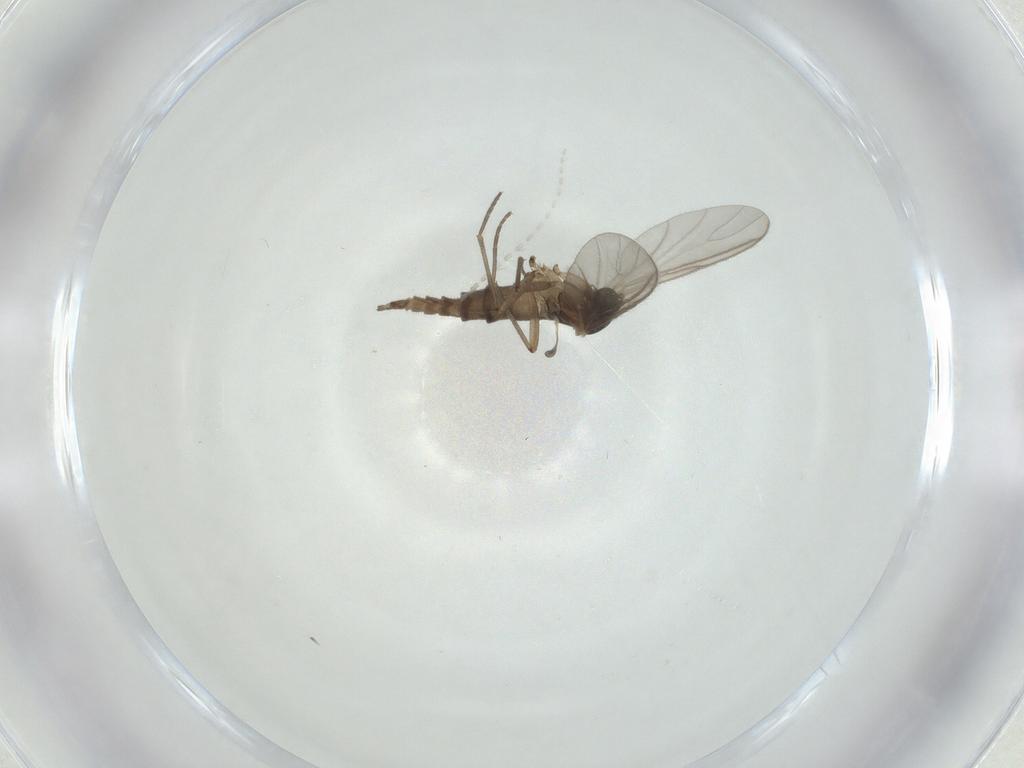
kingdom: Animalia
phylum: Arthropoda
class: Insecta
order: Diptera
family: Sciaridae
